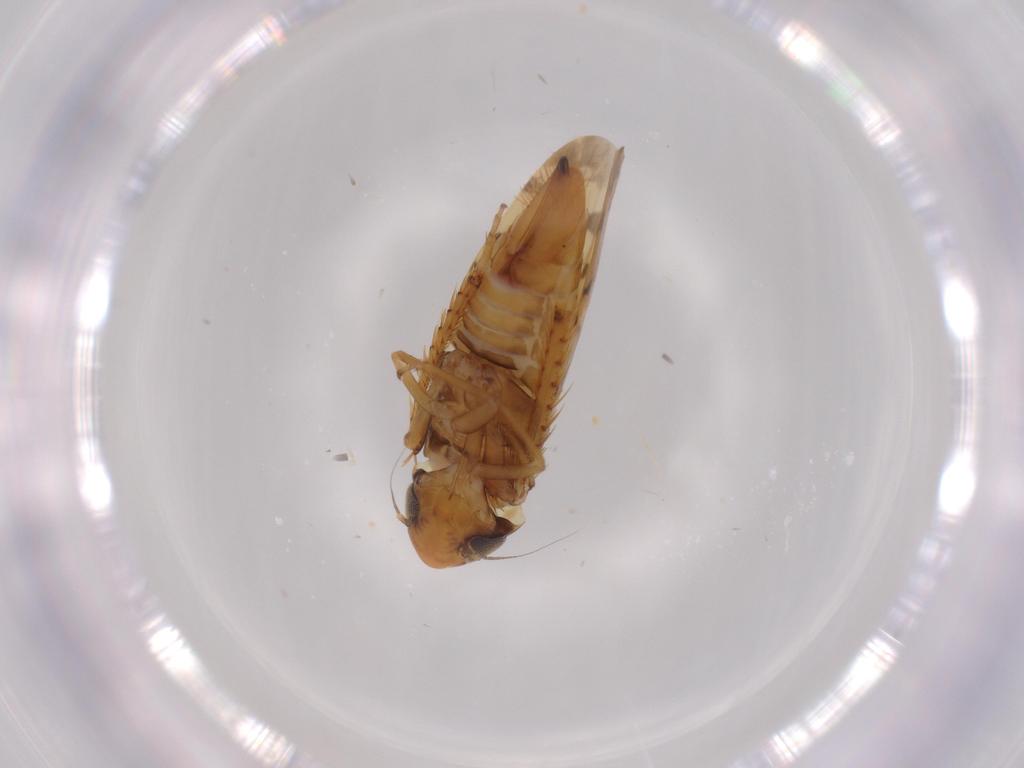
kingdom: Animalia
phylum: Arthropoda
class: Insecta
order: Hemiptera
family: Cicadellidae
